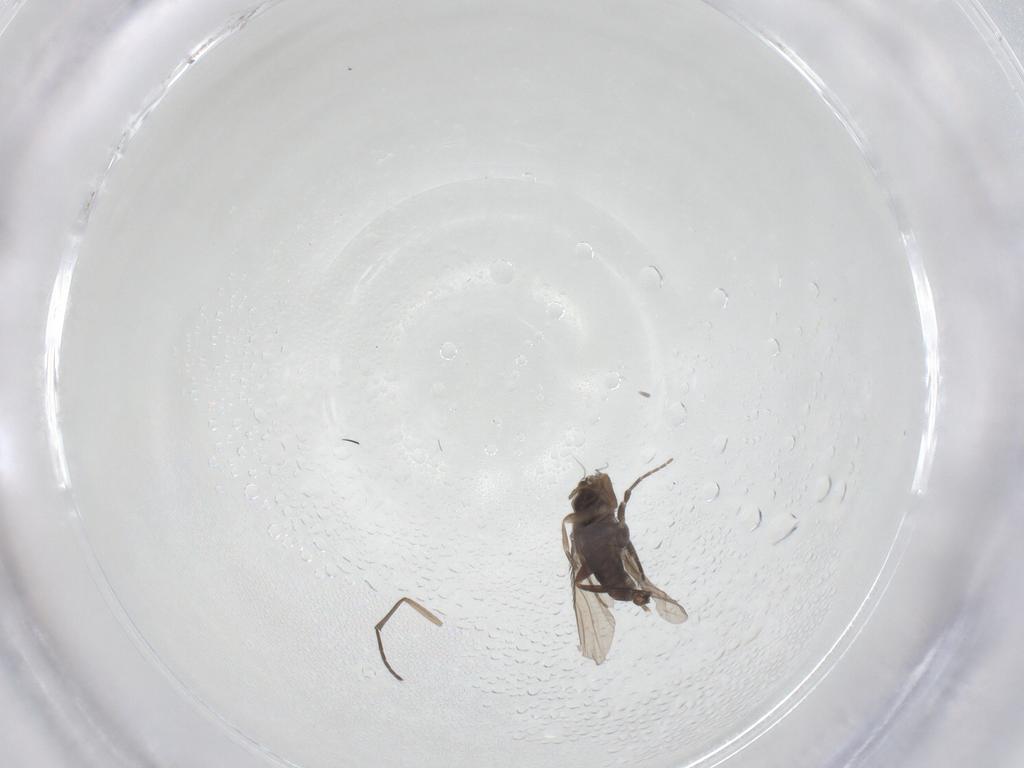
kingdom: Animalia
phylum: Arthropoda
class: Insecta
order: Diptera
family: Sciaridae
